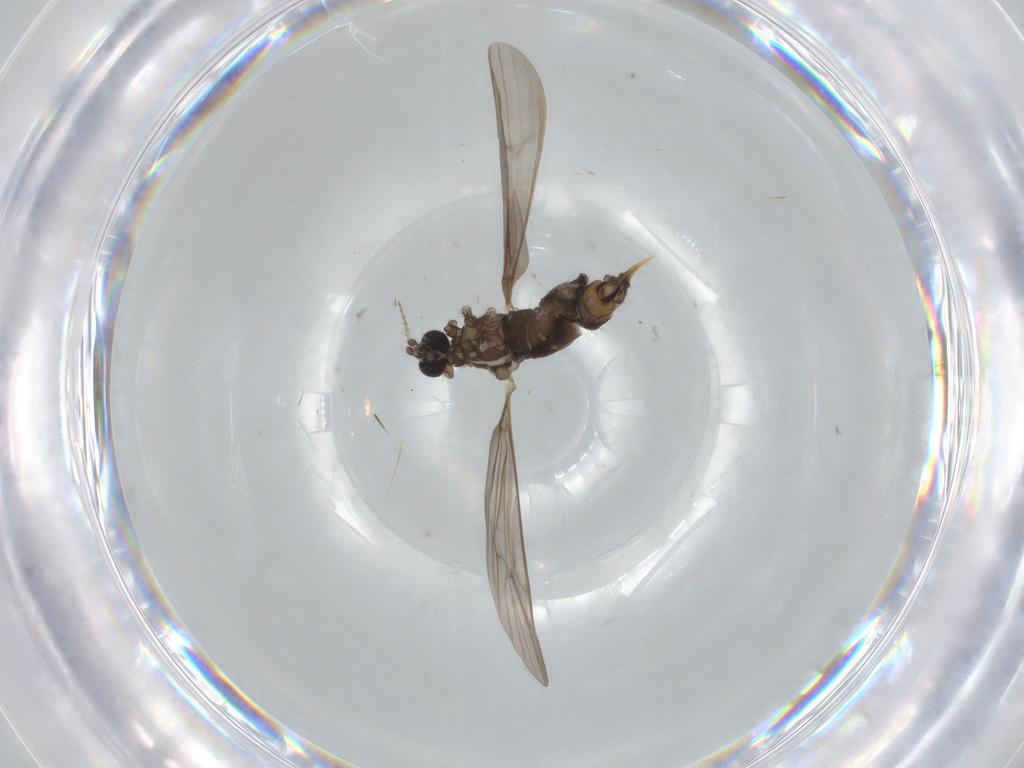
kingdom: Animalia
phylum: Arthropoda
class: Insecta
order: Diptera
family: Limoniidae
